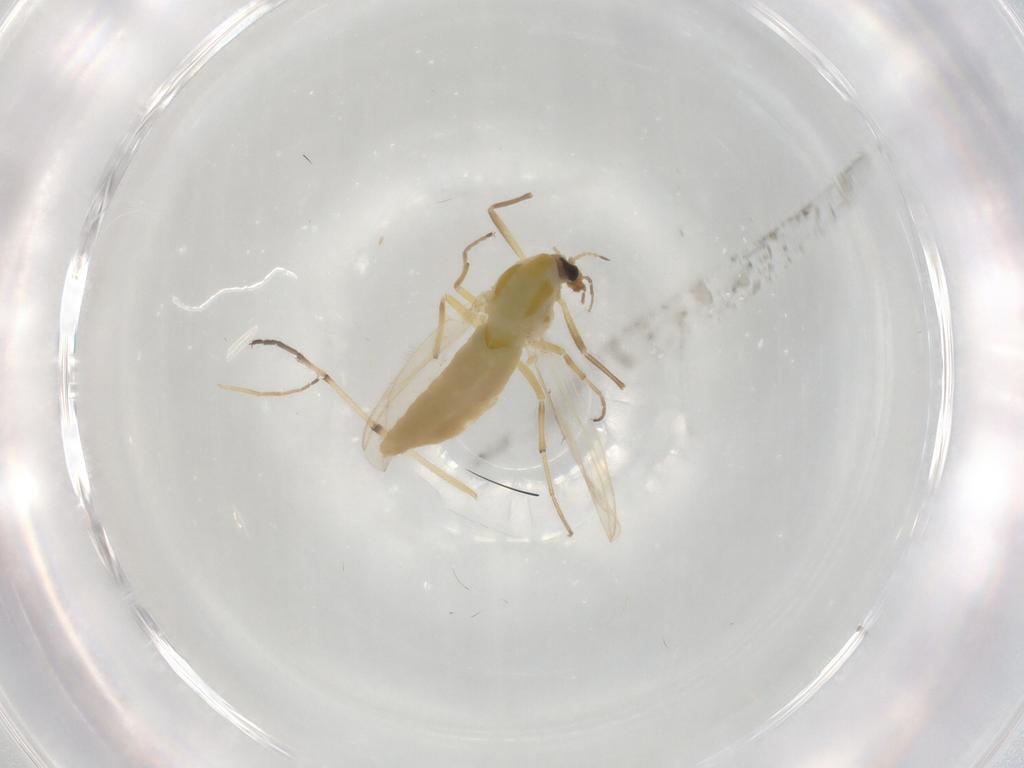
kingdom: Animalia
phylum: Arthropoda
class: Insecta
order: Diptera
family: Chironomidae
